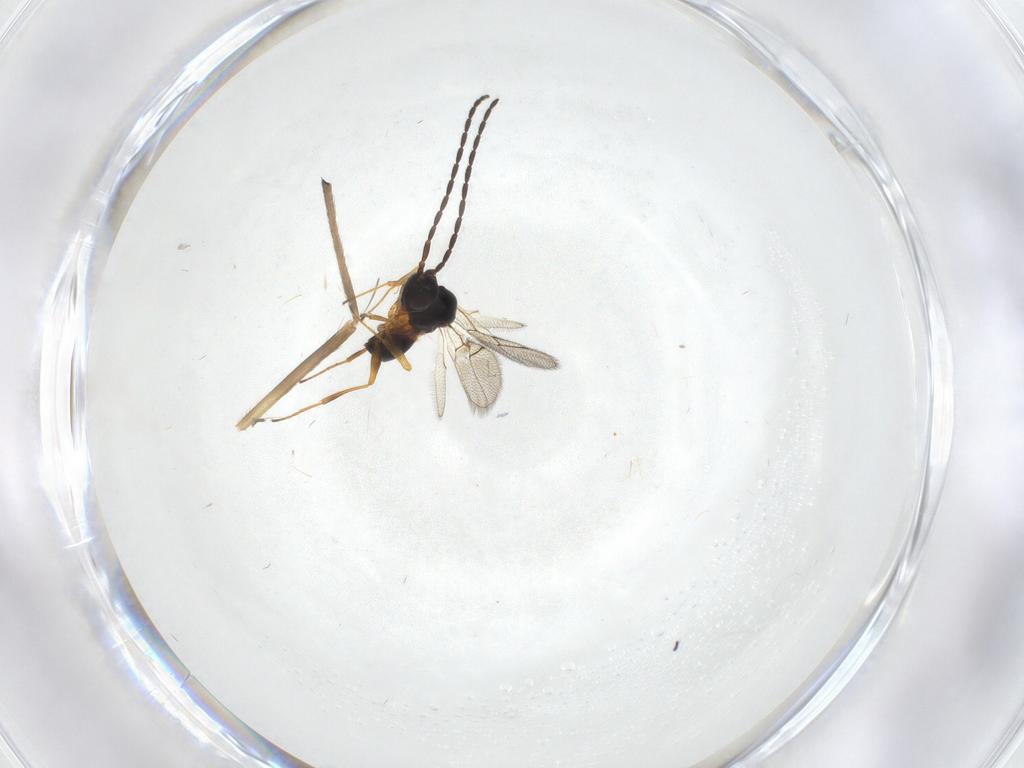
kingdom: Animalia
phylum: Arthropoda
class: Insecta
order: Hymenoptera
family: Figitidae
